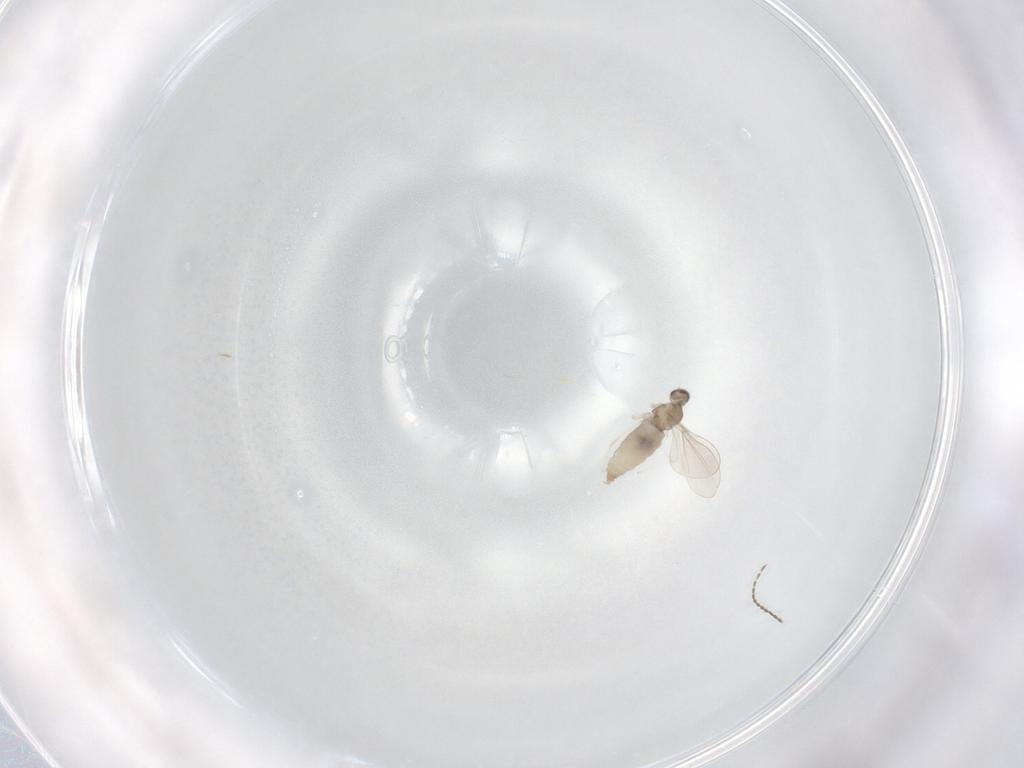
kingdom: Animalia
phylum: Arthropoda
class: Insecta
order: Diptera
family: Cecidomyiidae
